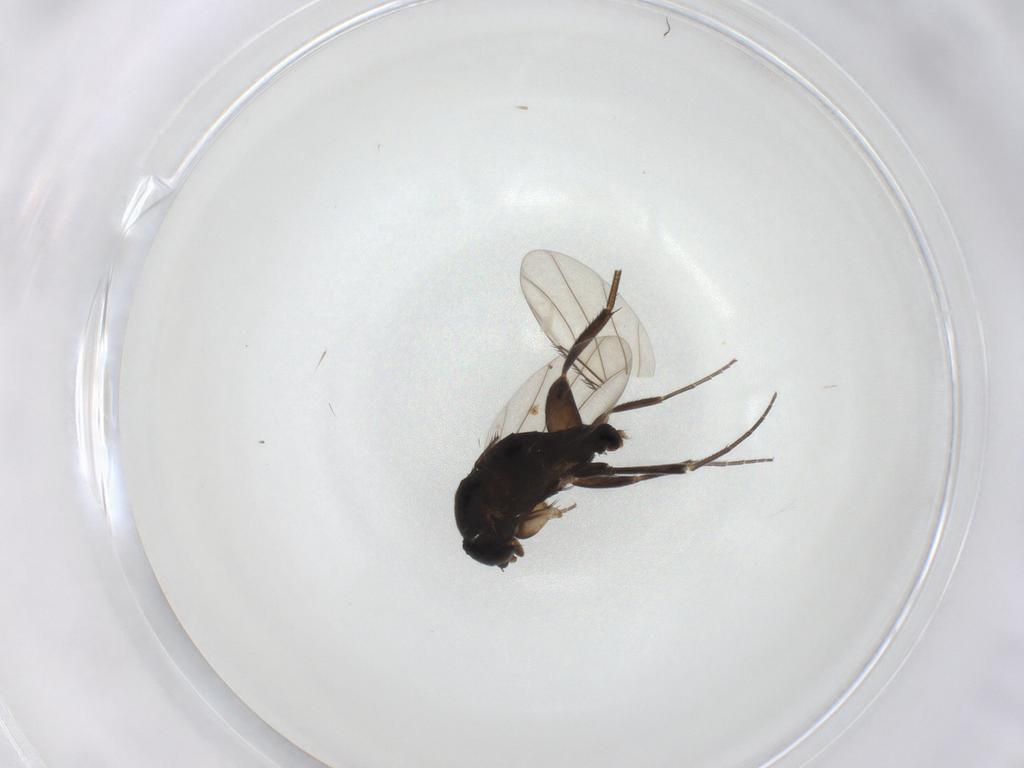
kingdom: Animalia
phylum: Arthropoda
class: Insecta
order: Diptera
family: Phoridae
